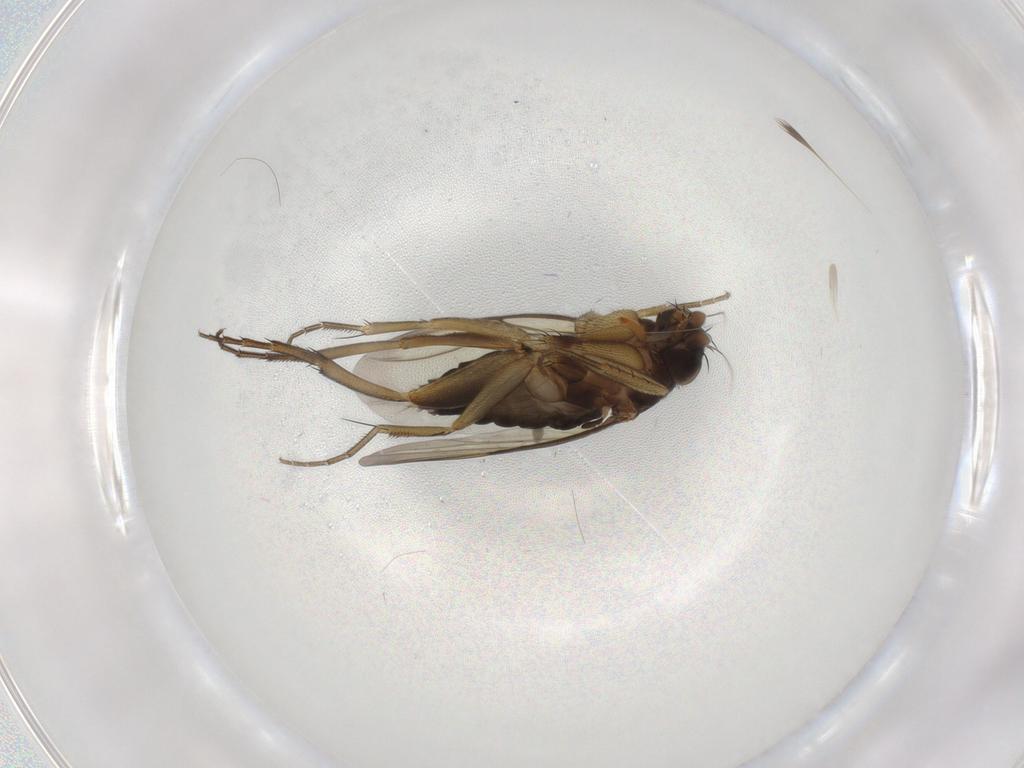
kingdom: Animalia
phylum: Arthropoda
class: Insecta
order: Diptera
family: Phoridae
